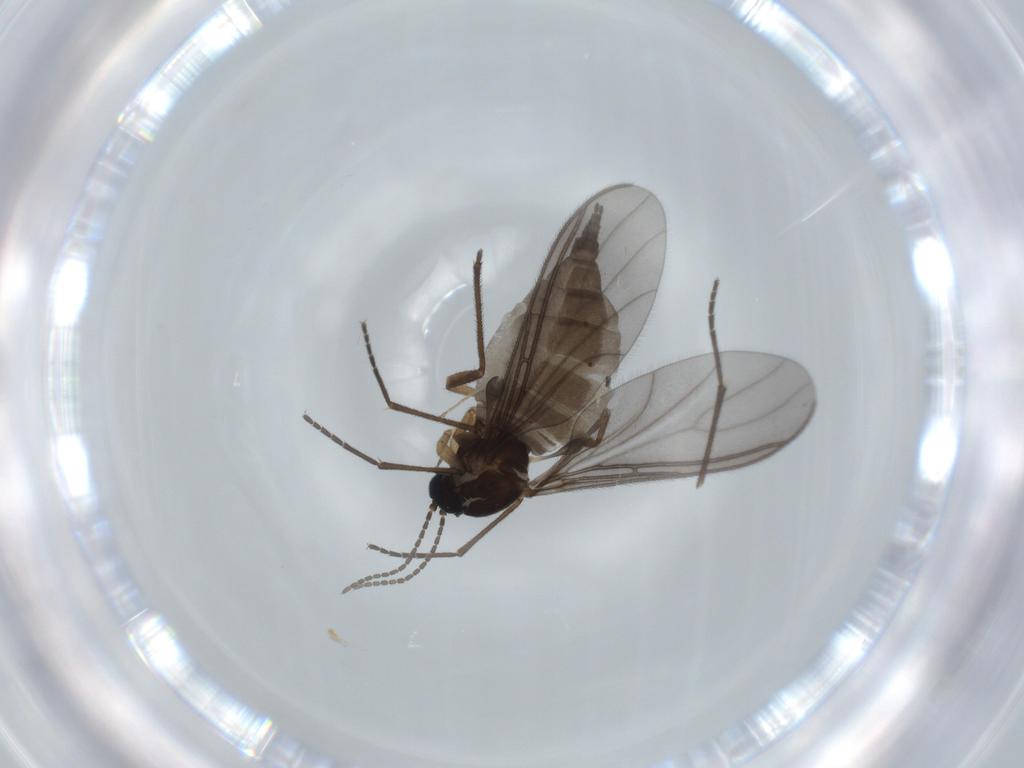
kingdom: Animalia
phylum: Arthropoda
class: Insecta
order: Diptera
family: Sciaridae
